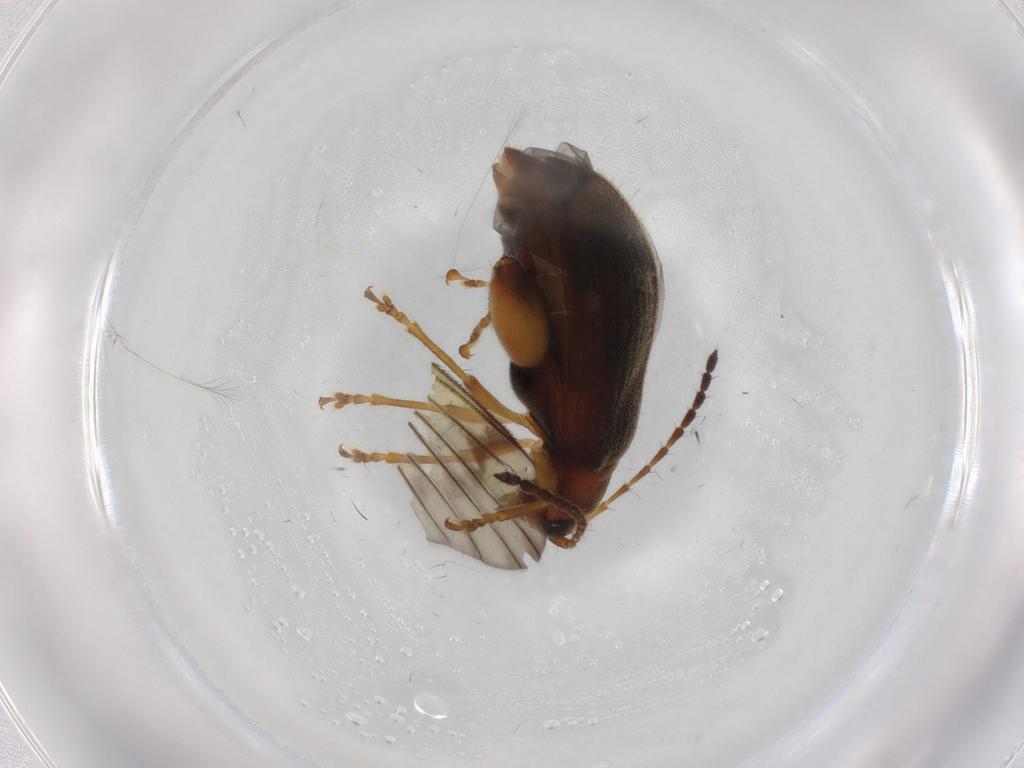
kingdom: Animalia
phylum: Arthropoda
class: Insecta
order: Coleoptera
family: Chrysomelidae
